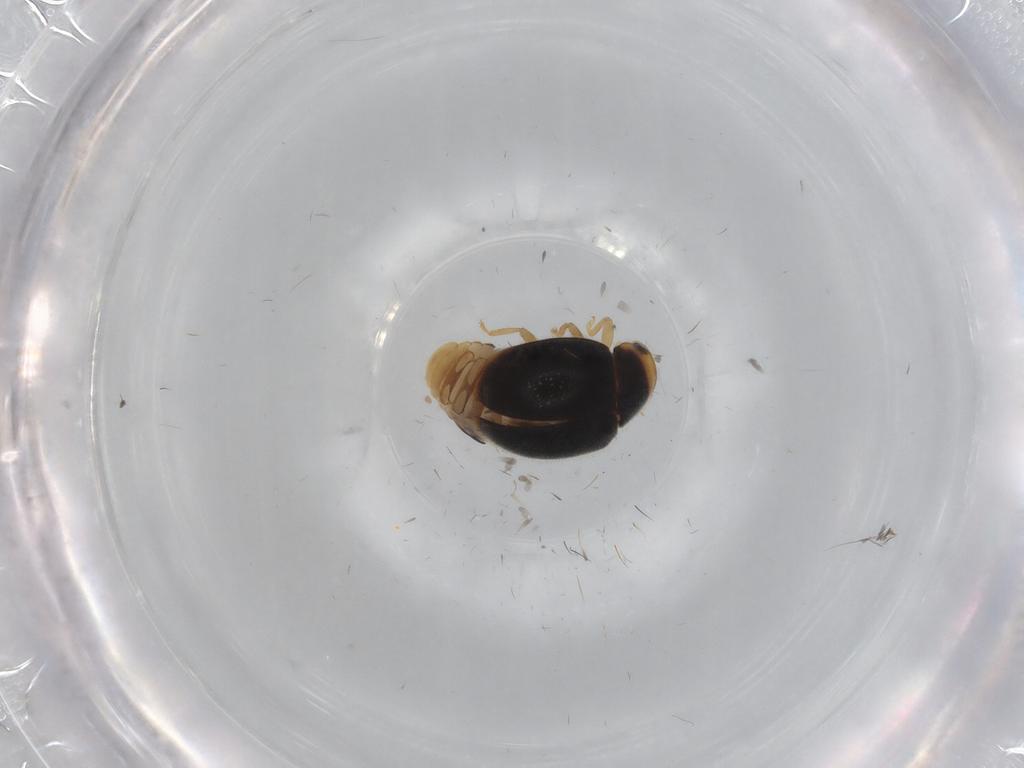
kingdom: Animalia
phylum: Arthropoda
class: Insecta
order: Coleoptera
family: Coccinellidae
